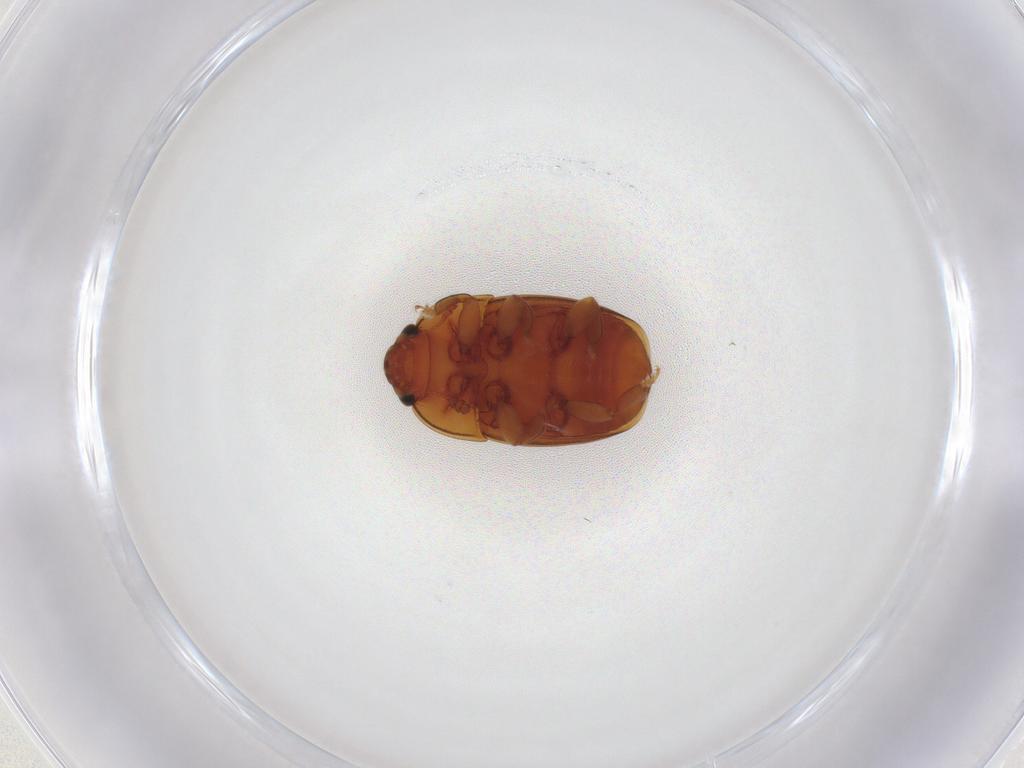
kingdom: Animalia
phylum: Arthropoda
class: Insecta
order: Coleoptera
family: Nitidulidae
